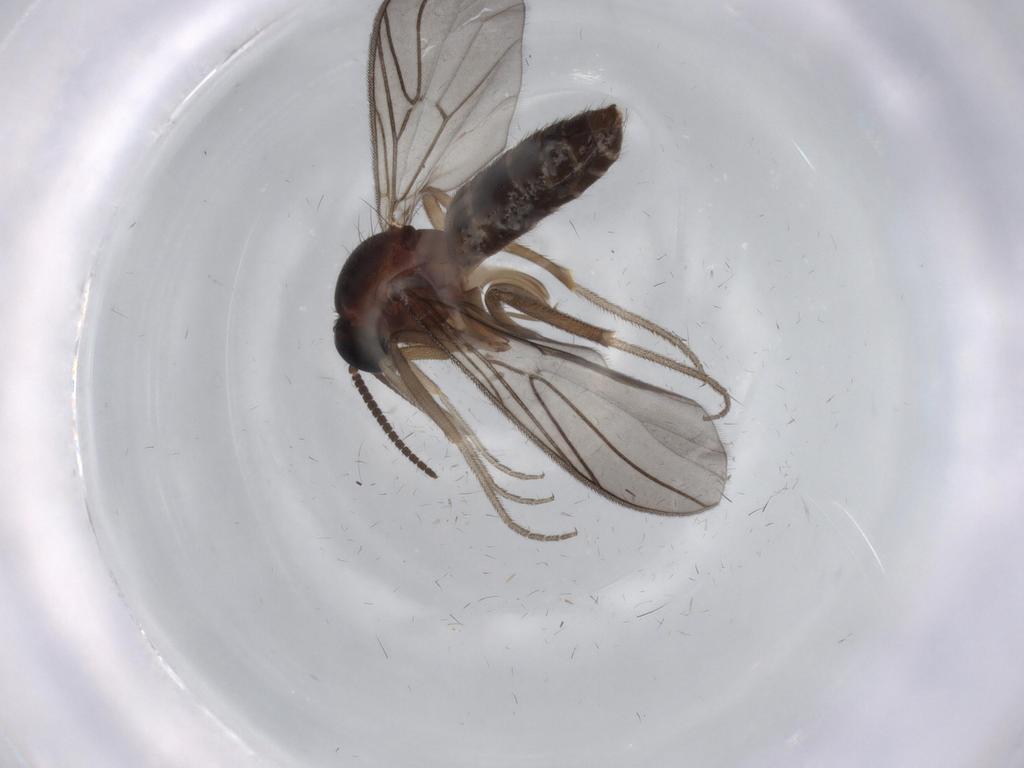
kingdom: Animalia
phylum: Arthropoda
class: Insecta
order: Diptera
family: Anisopodidae
